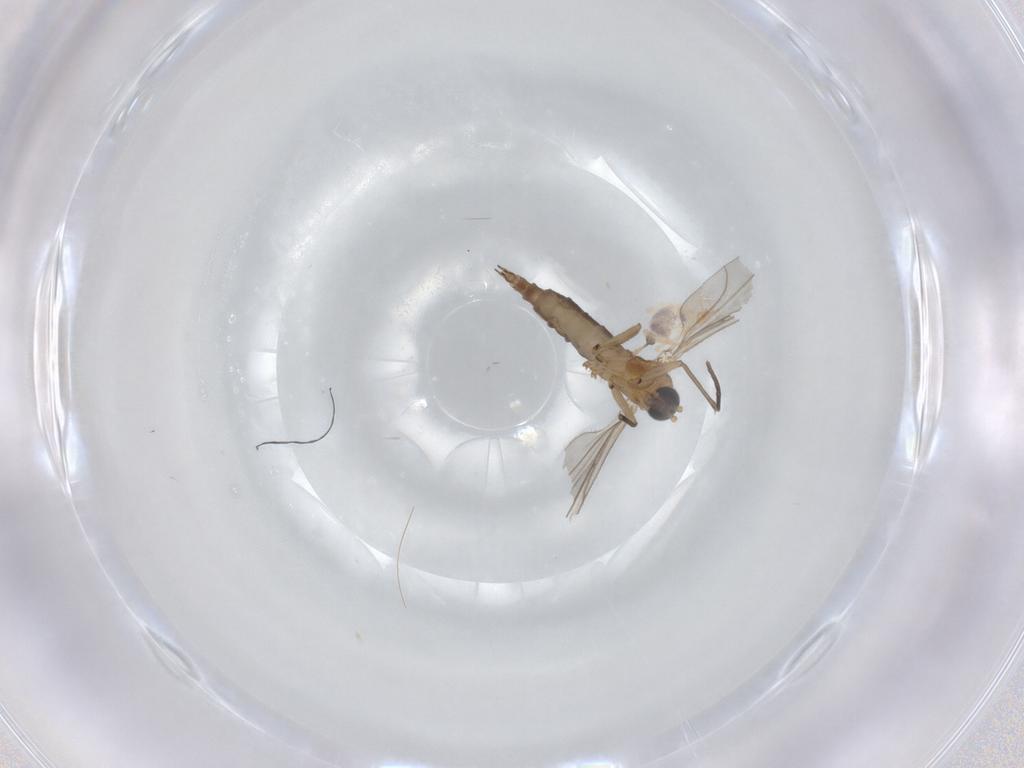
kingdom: Animalia
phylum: Arthropoda
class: Insecta
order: Diptera
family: Sciaridae
